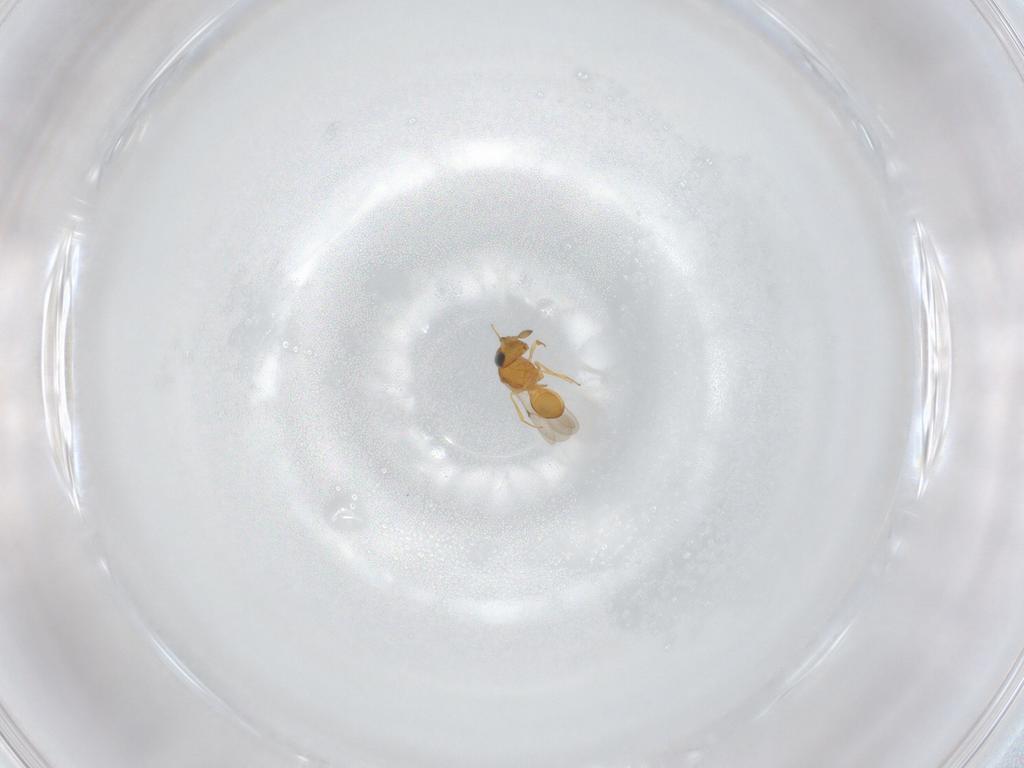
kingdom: Animalia
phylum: Arthropoda
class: Insecta
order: Hymenoptera
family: Scelionidae
